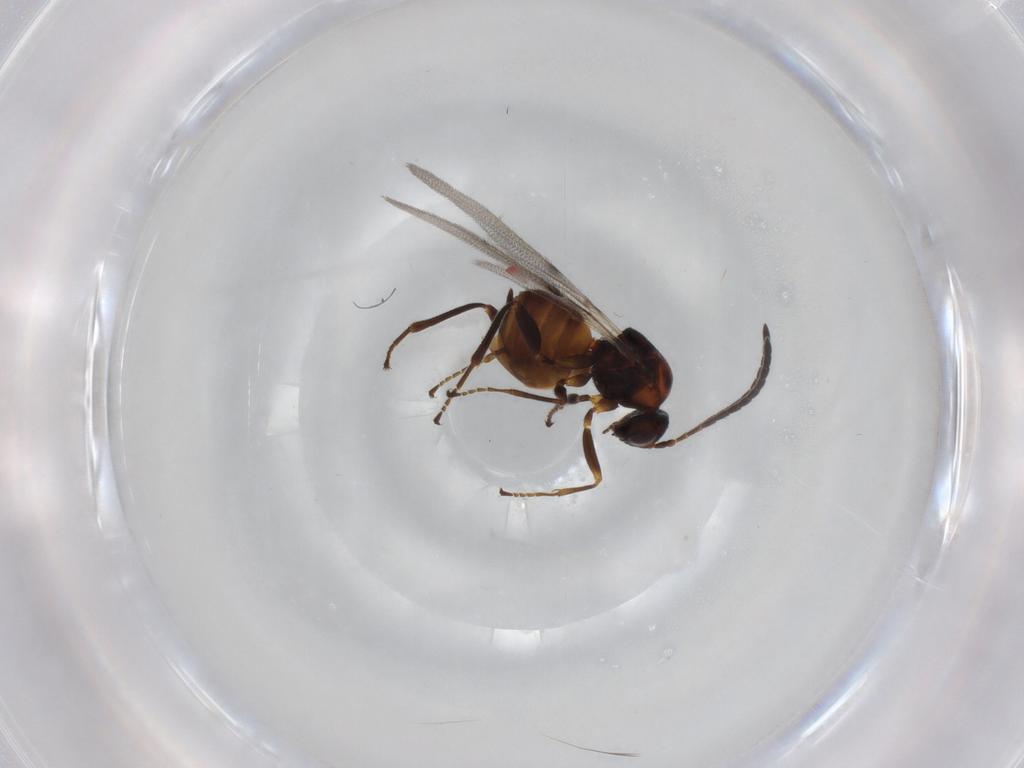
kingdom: Animalia
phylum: Arthropoda
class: Insecta
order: Hymenoptera
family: Cynipidae
